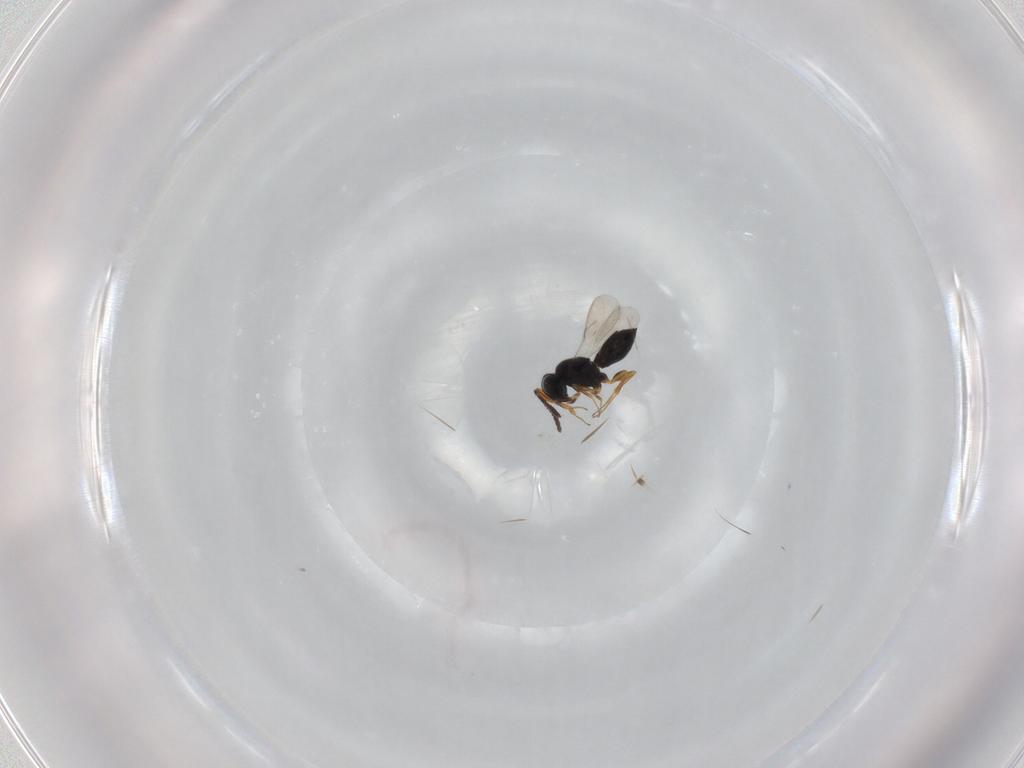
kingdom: Animalia
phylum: Arthropoda
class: Insecta
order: Hymenoptera
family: Scelionidae
